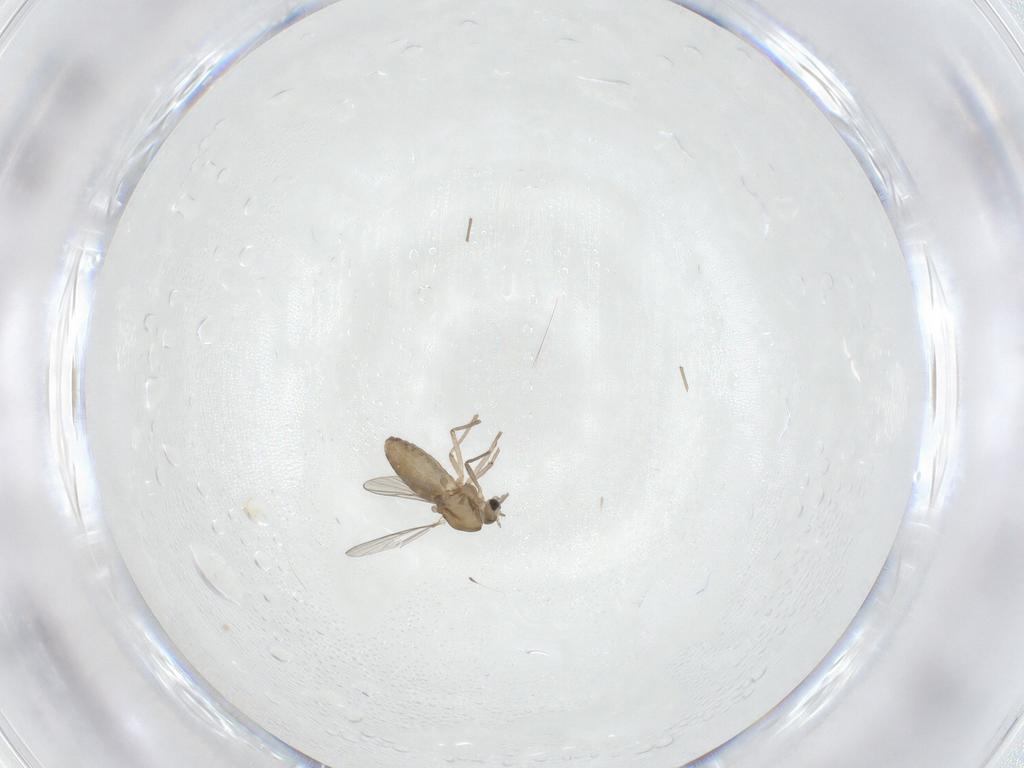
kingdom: Animalia
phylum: Arthropoda
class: Insecta
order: Diptera
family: Chironomidae
